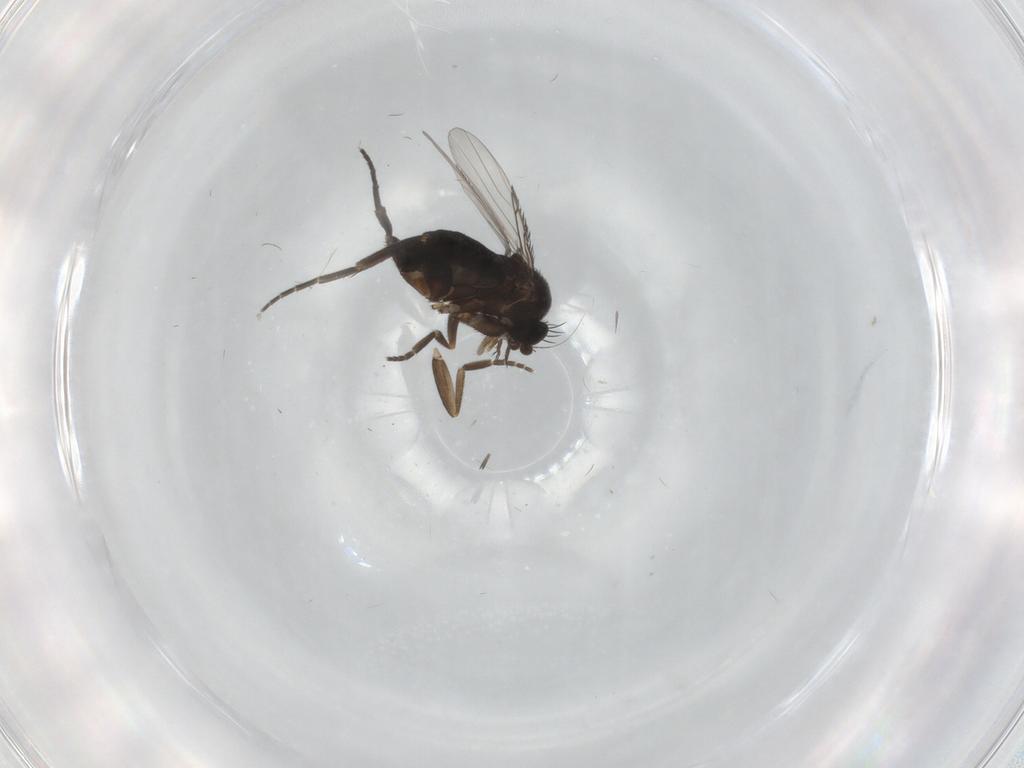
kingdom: Animalia
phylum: Arthropoda
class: Insecta
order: Diptera
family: Phoridae
